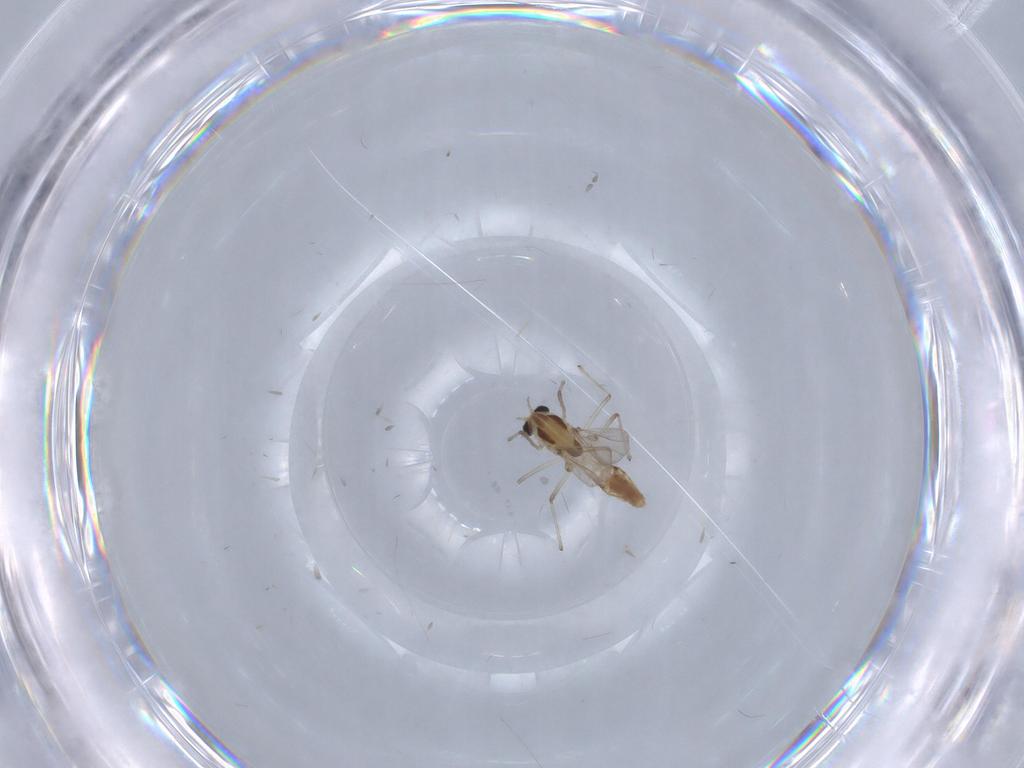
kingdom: Animalia
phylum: Arthropoda
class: Insecta
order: Diptera
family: Chironomidae
